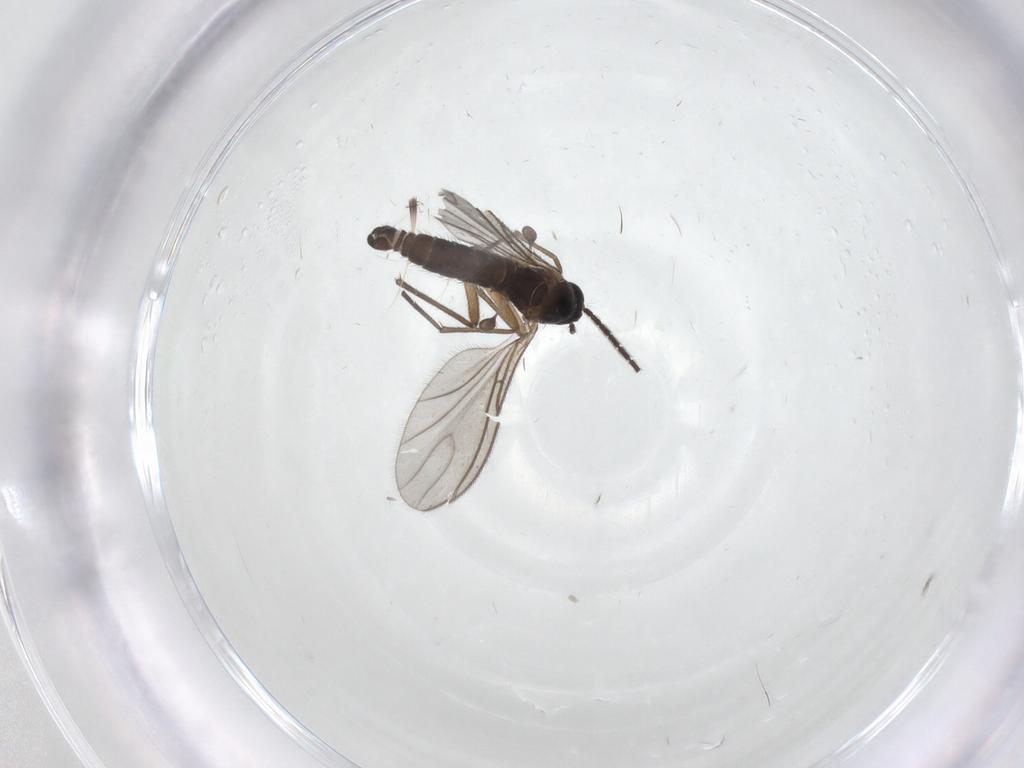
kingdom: Animalia
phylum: Arthropoda
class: Insecta
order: Diptera
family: Sciaridae
